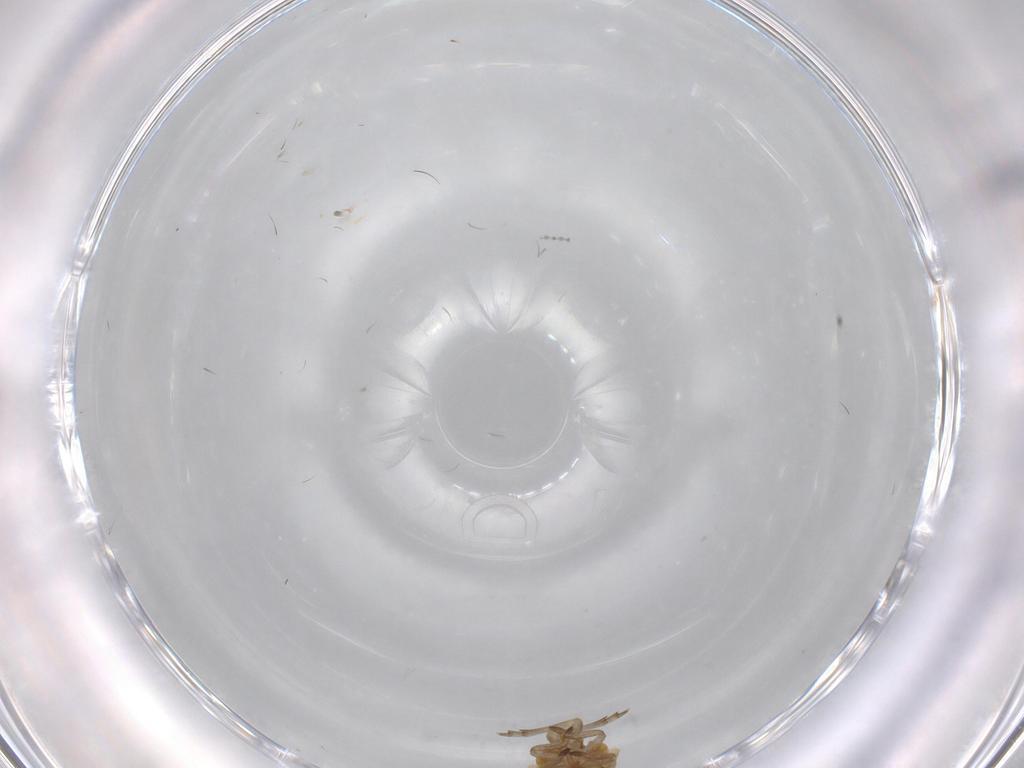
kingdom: Animalia
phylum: Arthropoda
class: Insecta
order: Hemiptera
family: Flatidae
